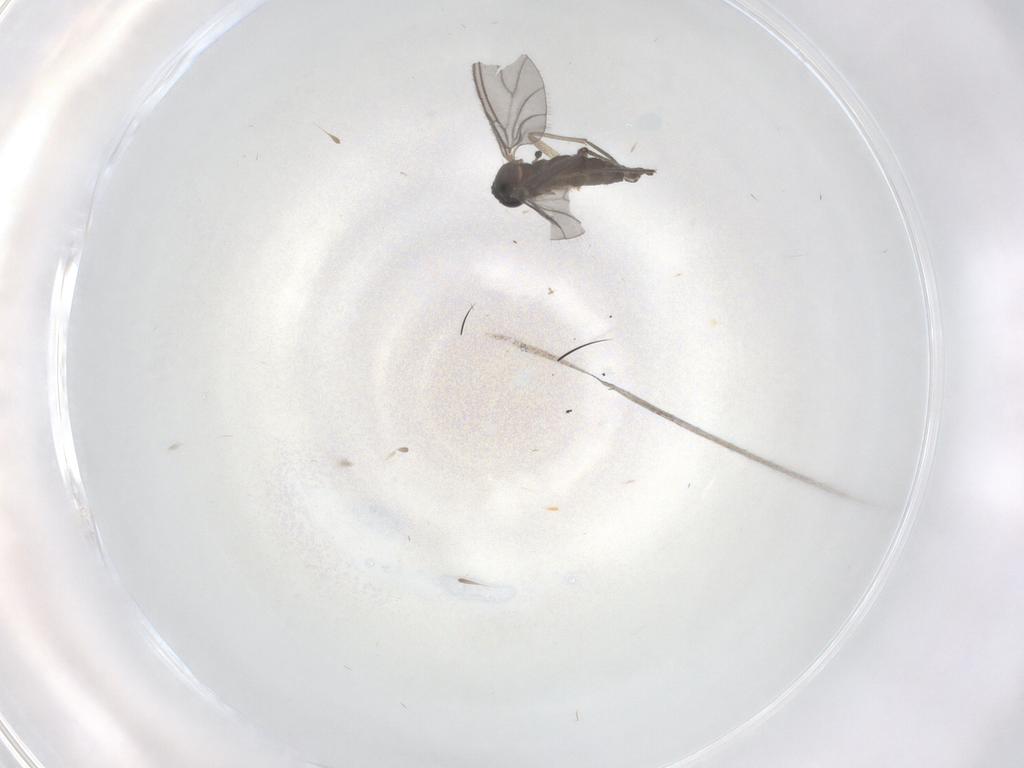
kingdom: Animalia
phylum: Arthropoda
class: Insecta
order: Diptera
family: Sciaridae
